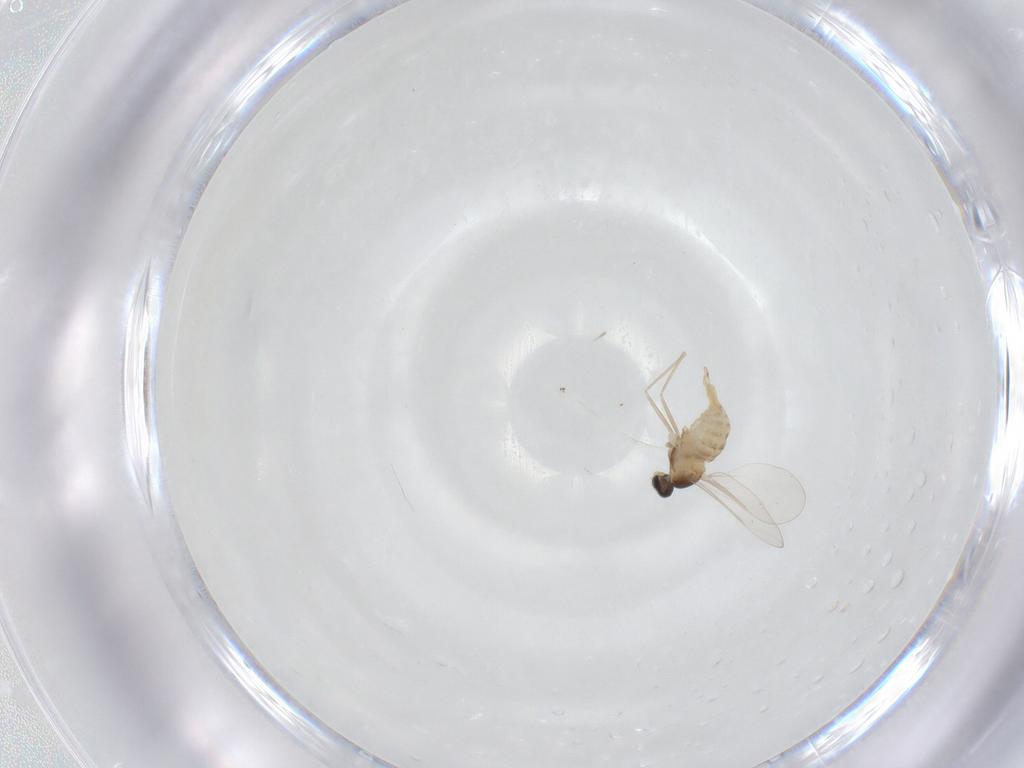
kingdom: Animalia
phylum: Arthropoda
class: Insecta
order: Diptera
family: Cecidomyiidae
